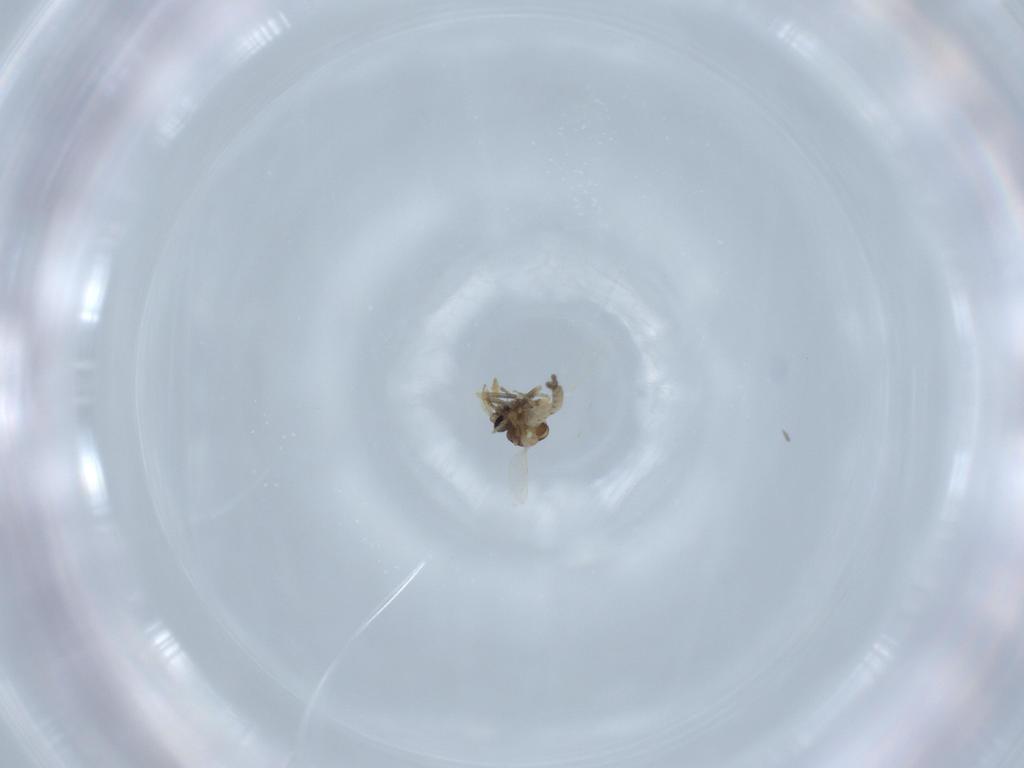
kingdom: Animalia
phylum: Arthropoda
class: Insecta
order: Diptera
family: Ceratopogonidae
